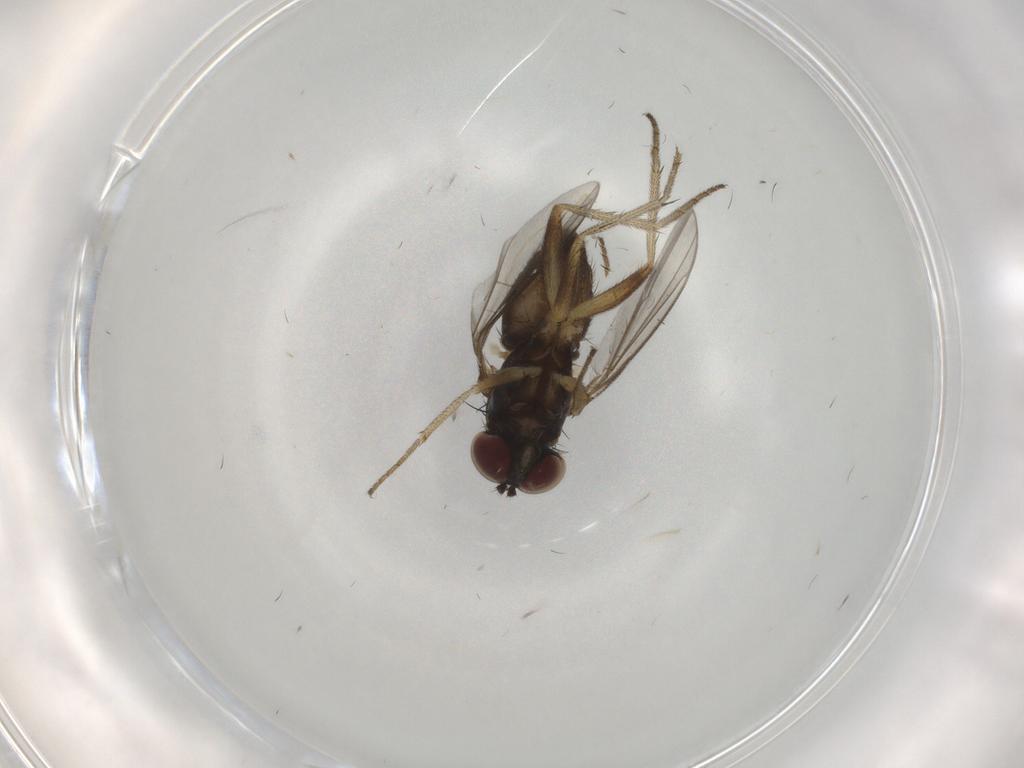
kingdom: Animalia
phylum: Arthropoda
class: Insecta
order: Diptera
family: Dolichopodidae
